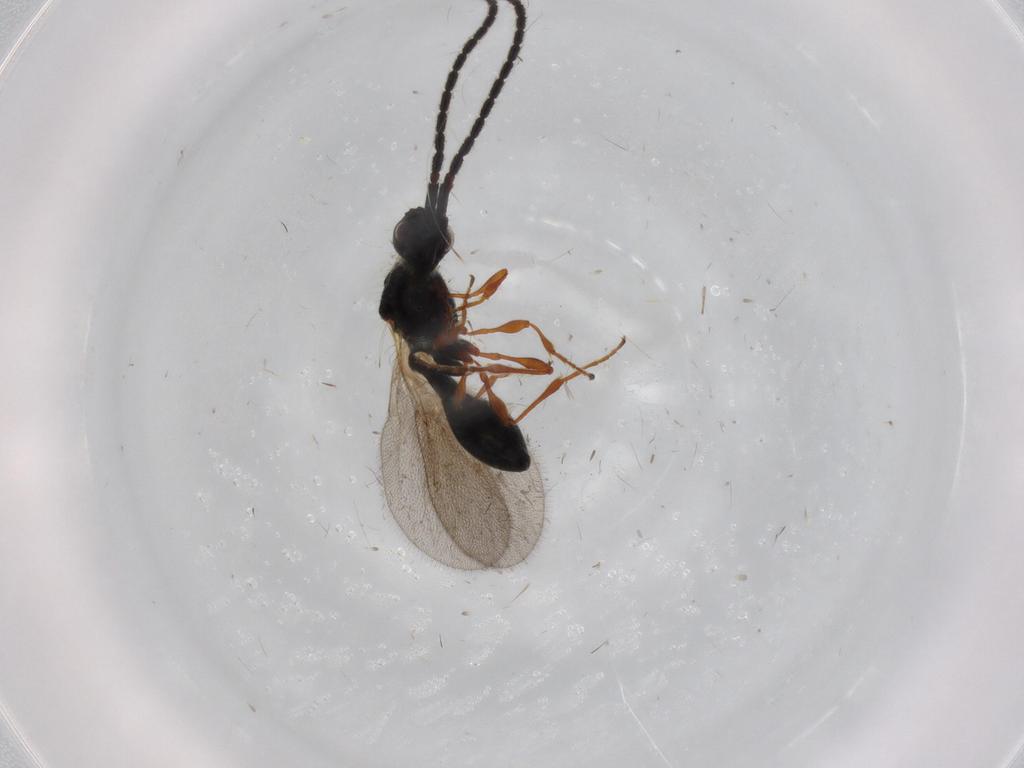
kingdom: Animalia
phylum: Arthropoda
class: Insecta
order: Hymenoptera
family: Diapriidae
